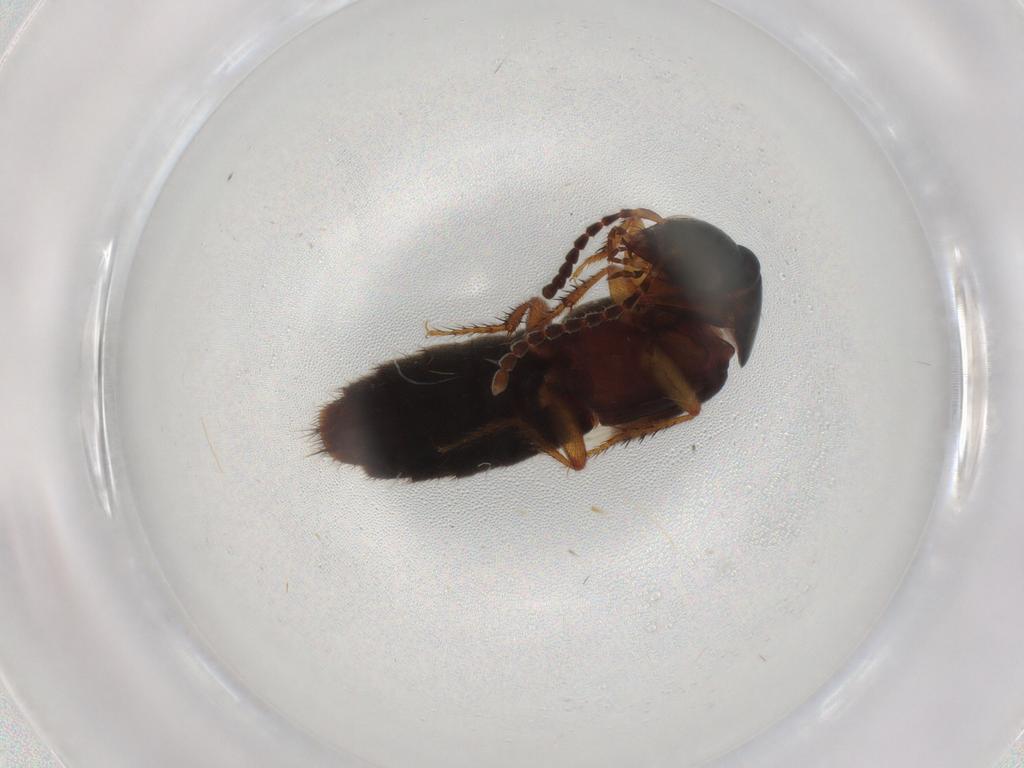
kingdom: Animalia
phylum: Arthropoda
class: Insecta
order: Coleoptera
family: Staphylinidae
